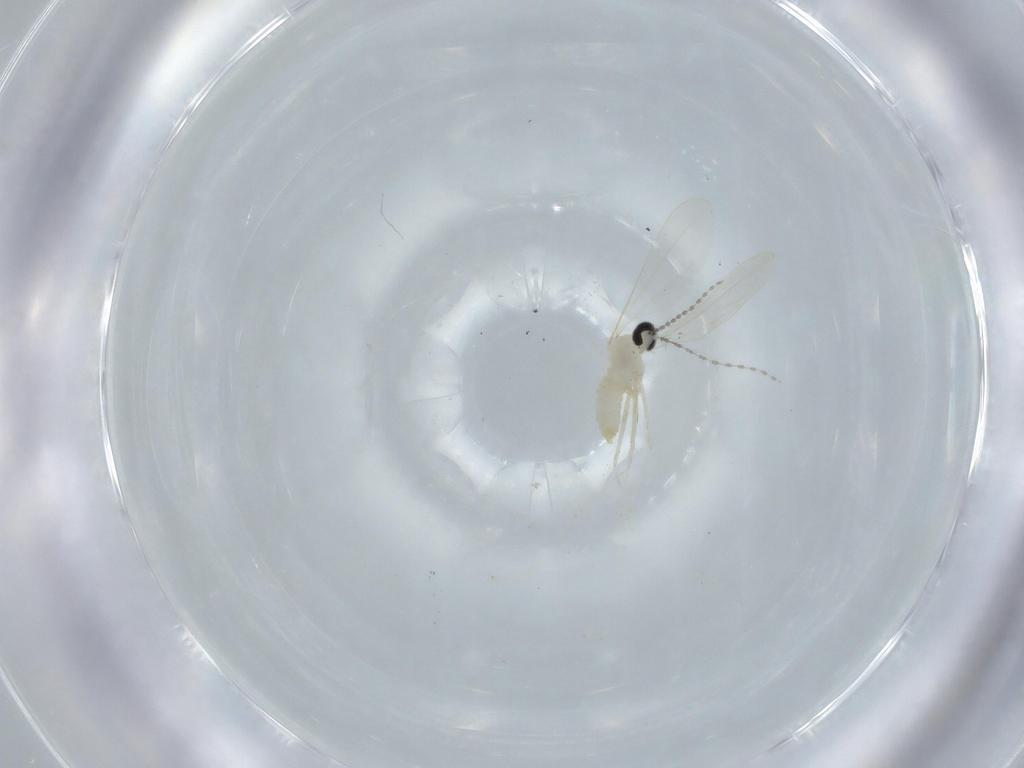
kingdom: Animalia
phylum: Arthropoda
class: Insecta
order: Diptera
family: Cecidomyiidae
